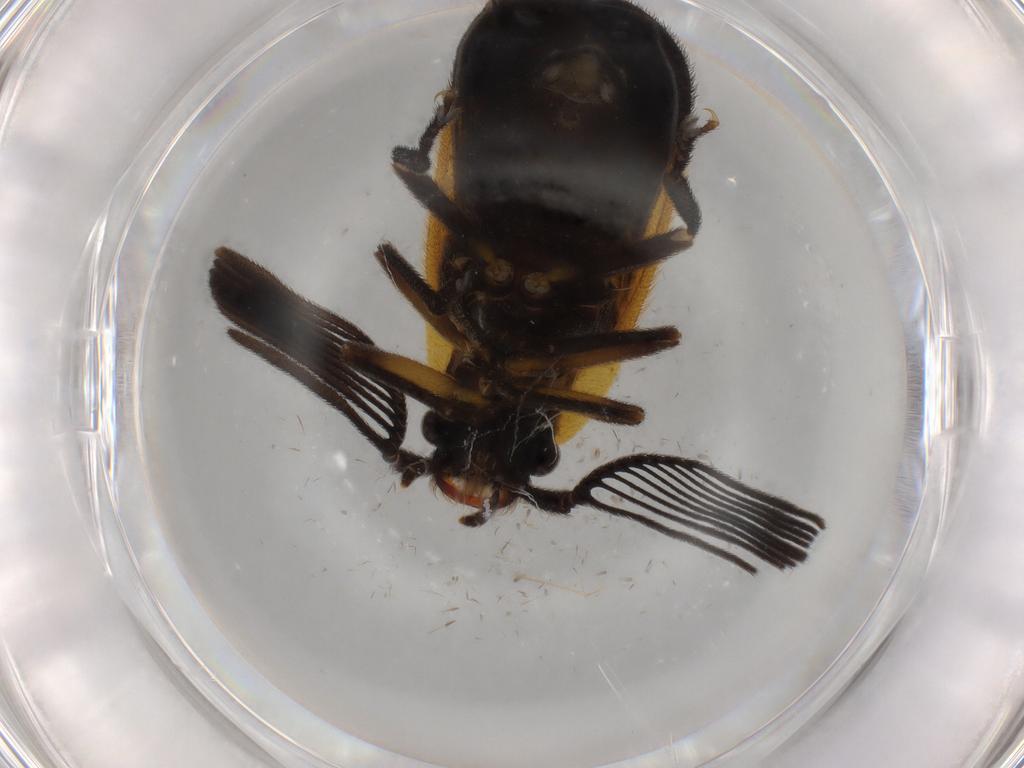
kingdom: Animalia
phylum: Arthropoda
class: Insecta
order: Coleoptera
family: Lampyridae
